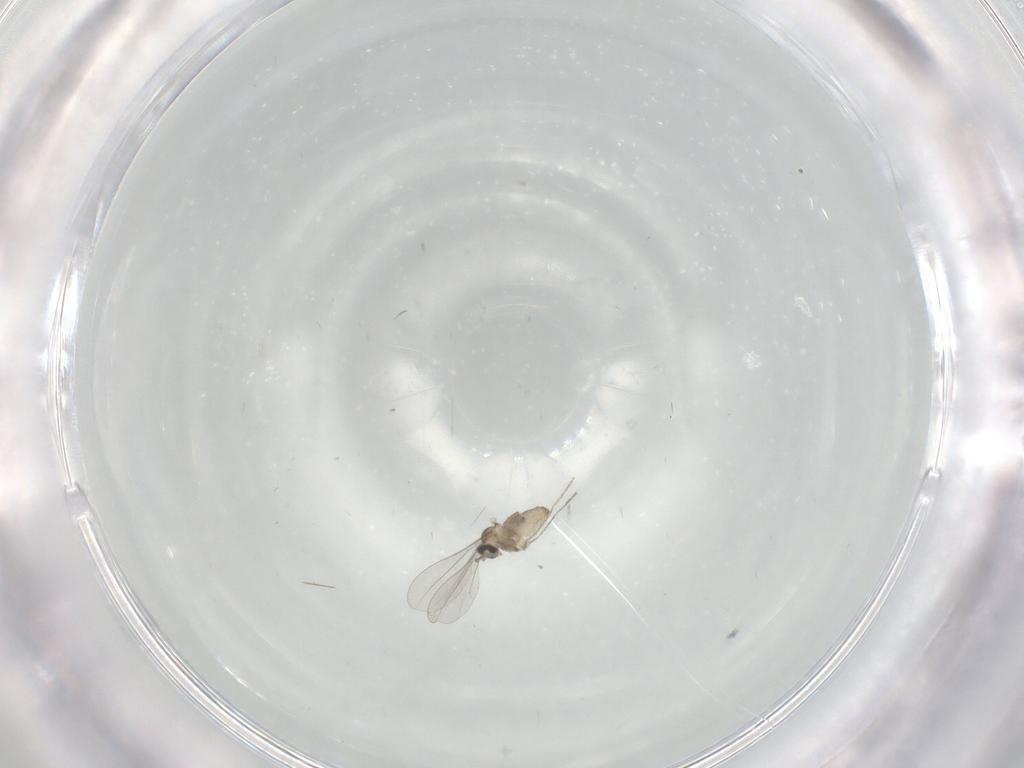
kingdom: Animalia
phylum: Arthropoda
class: Insecta
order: Diptera
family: Cecidomyiidae
